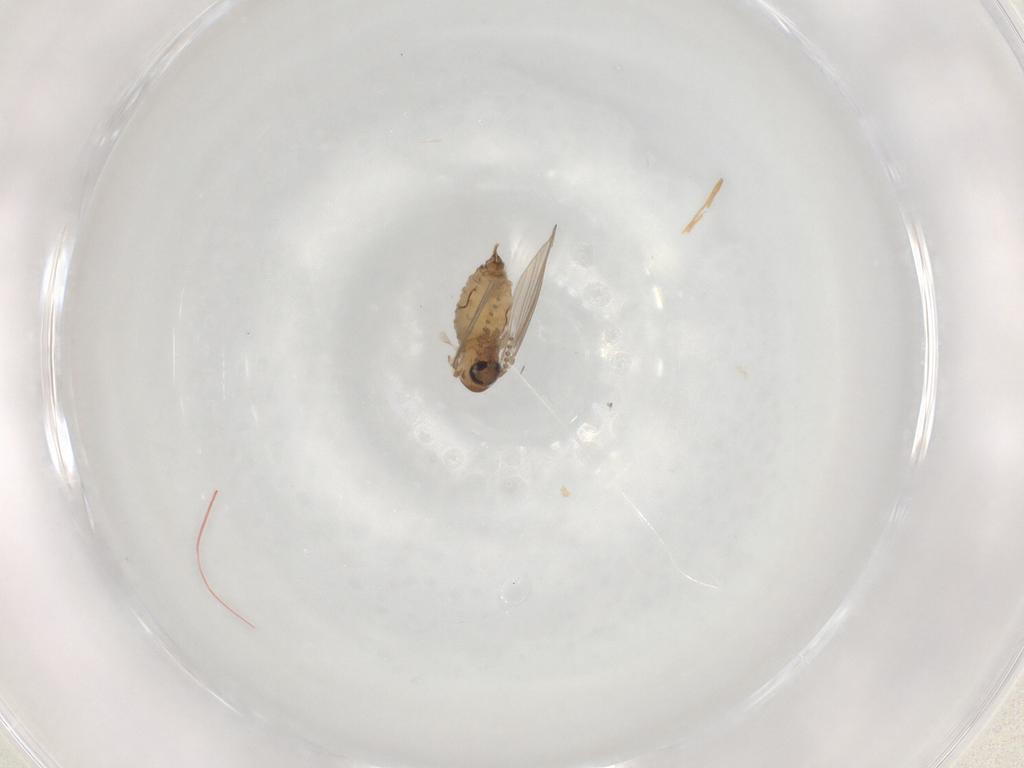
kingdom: Animalia
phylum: Arthropoda
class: Insecta
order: Diptera
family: Psychodidae
